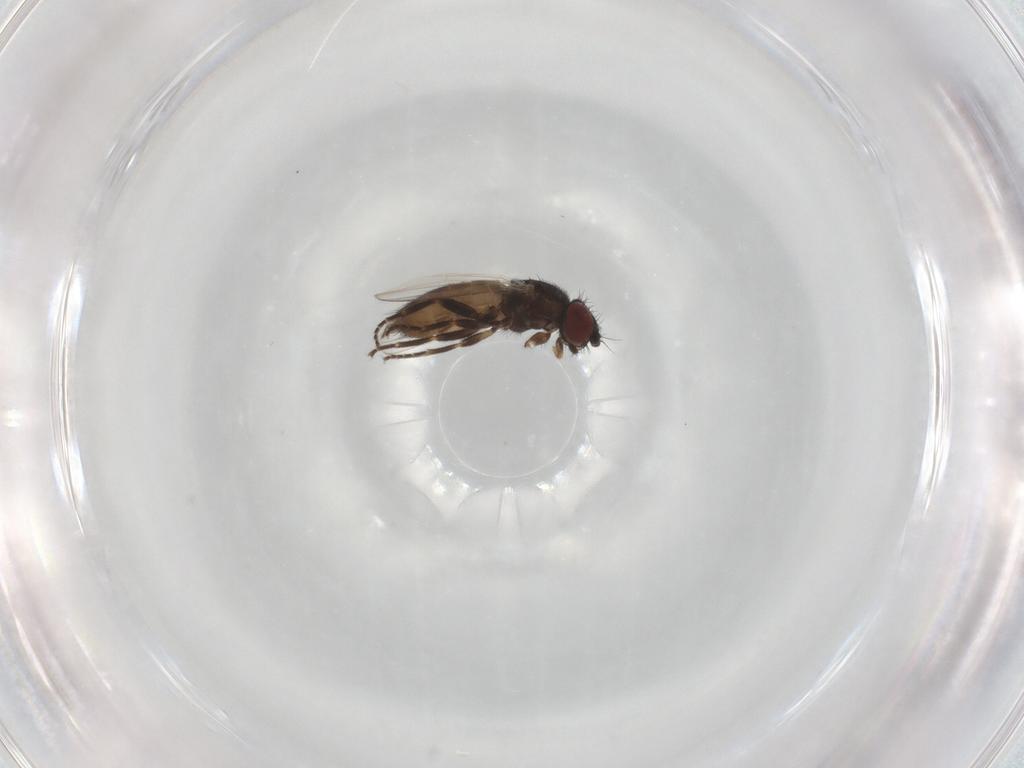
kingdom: Animalia
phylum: Arthropoda
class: Insecta
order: Diptera
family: Milichiidae
